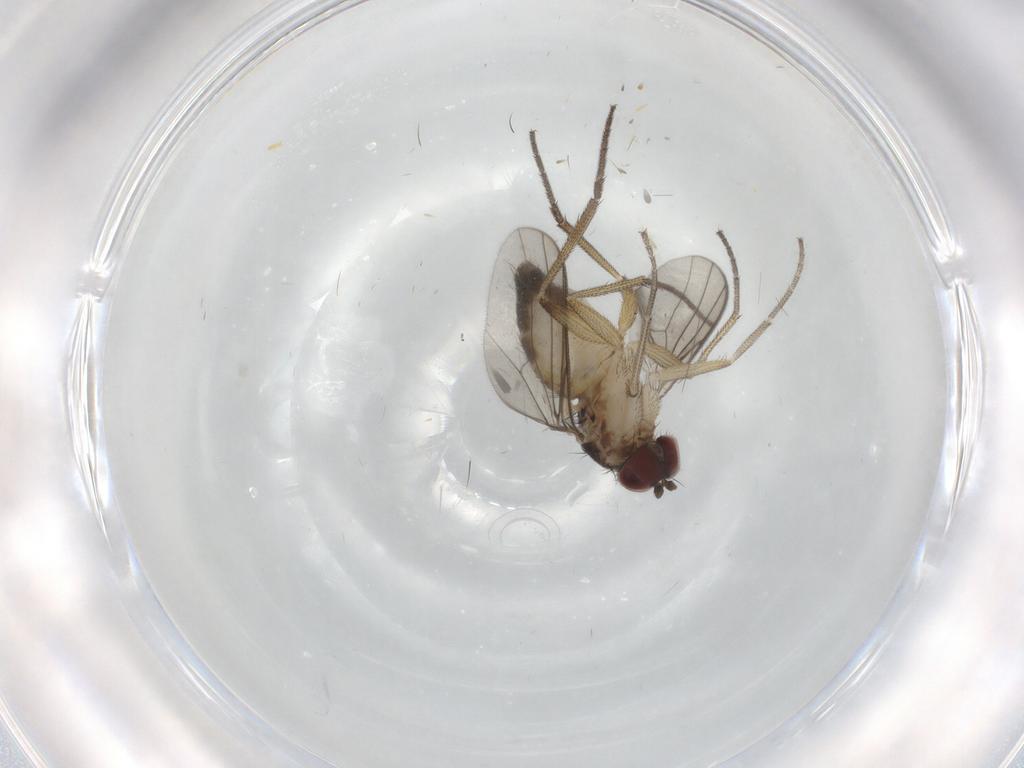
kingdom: Animalia
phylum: Arthropoda
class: Insecta
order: Diptera
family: Dolichopodidae
